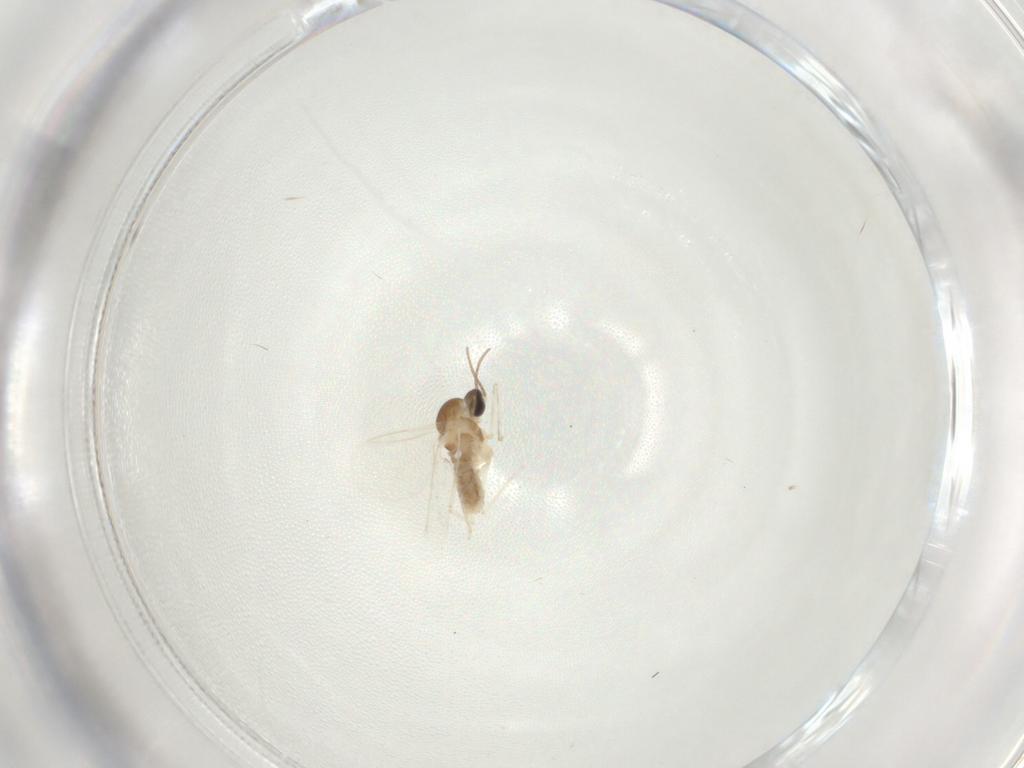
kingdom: Animalia
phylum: Arthropoda
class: Insecta
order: Diptera
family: Cecidomyiidae
